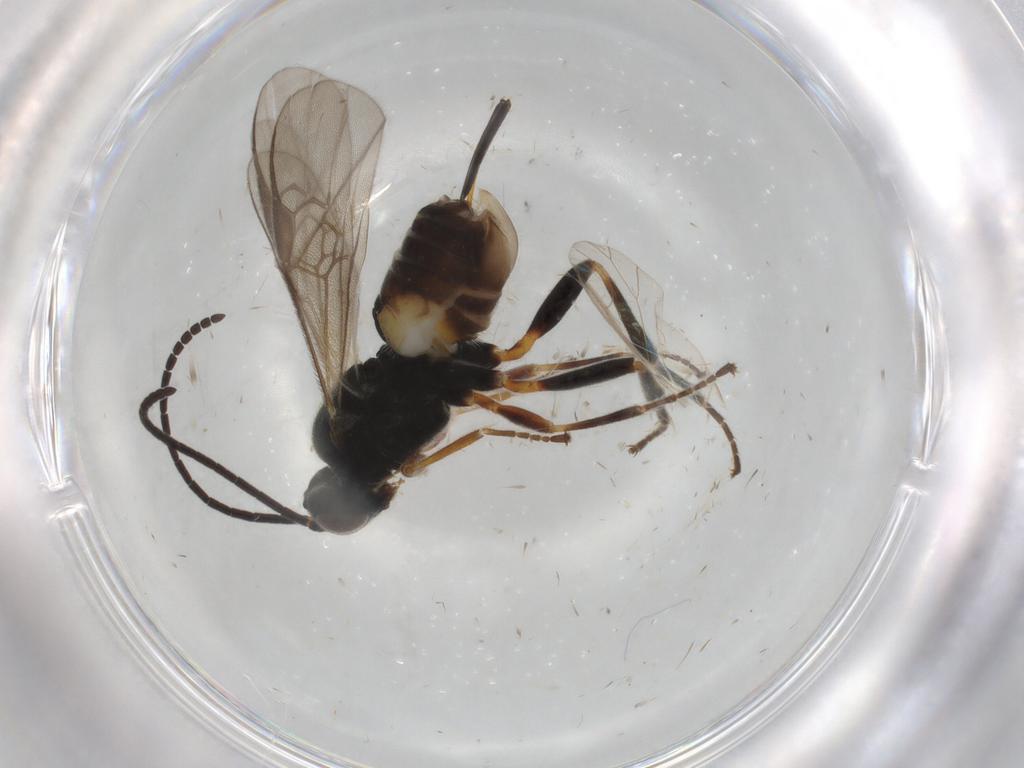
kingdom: Animalia
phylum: Arthropoda
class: Insecta
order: Hymenoptera
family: Braconidae
